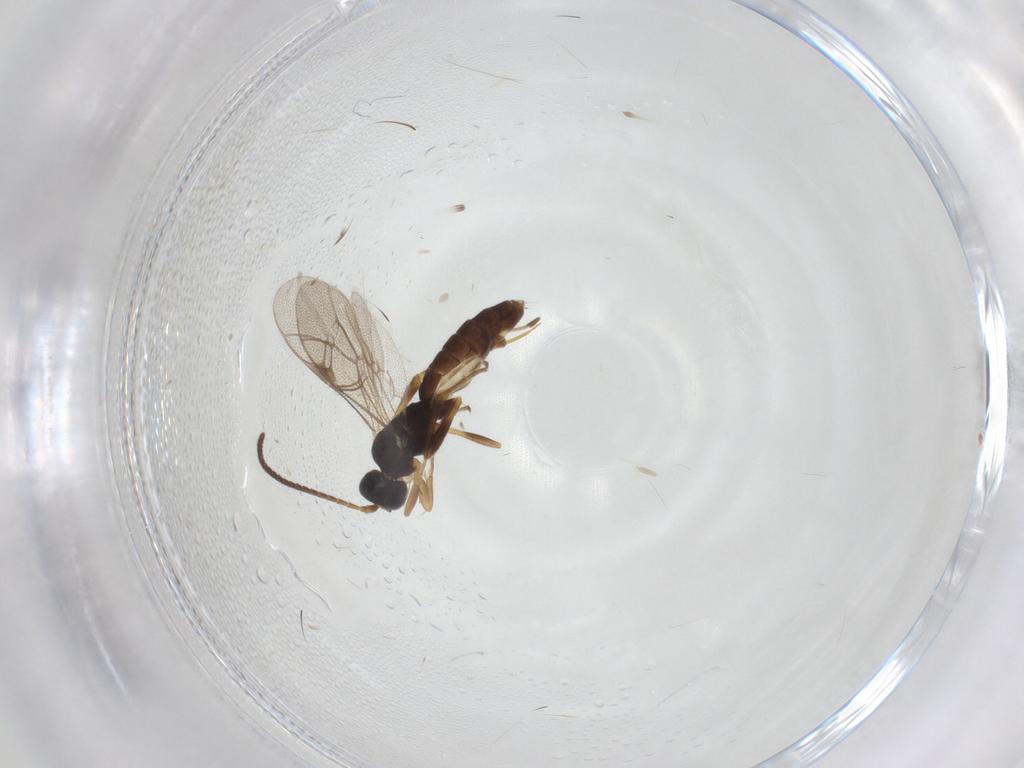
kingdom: Animalia
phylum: Arthropoda
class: Insecta
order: Hymenoptera
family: Ichneumonidae
